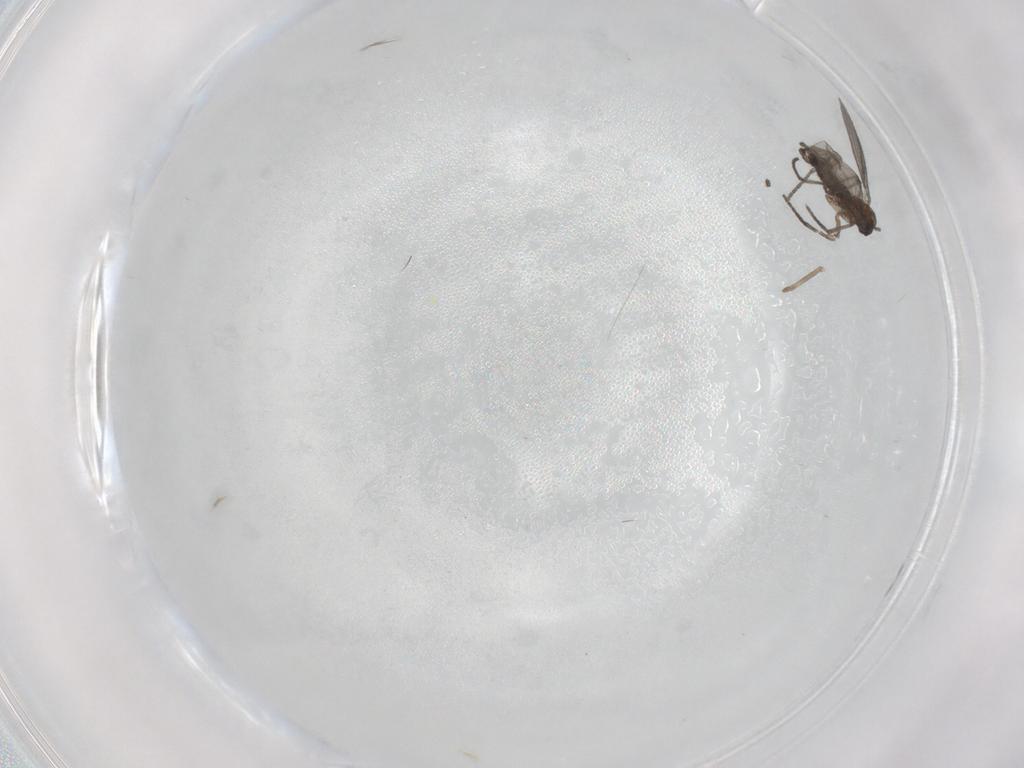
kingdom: Animalia
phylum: Arthropoda
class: Insecta
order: Diptera
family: Sciaridae
